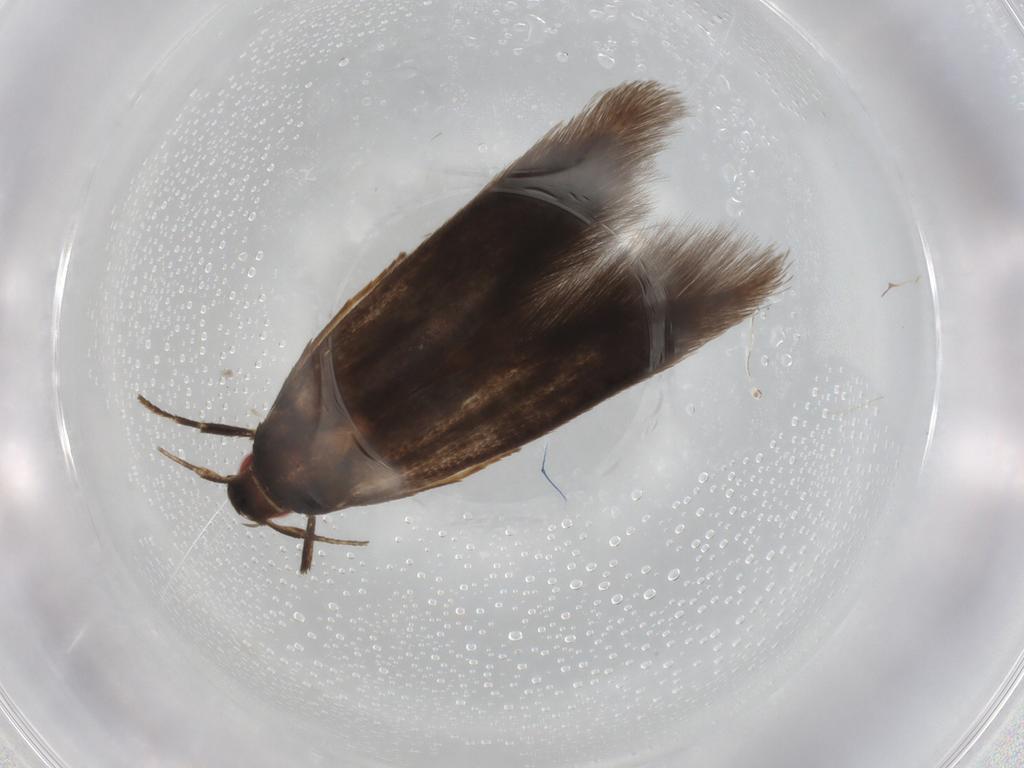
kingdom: Animalia
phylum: Arthropoda
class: Insecta
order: Lepidoptera
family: Cosmopterigidae
